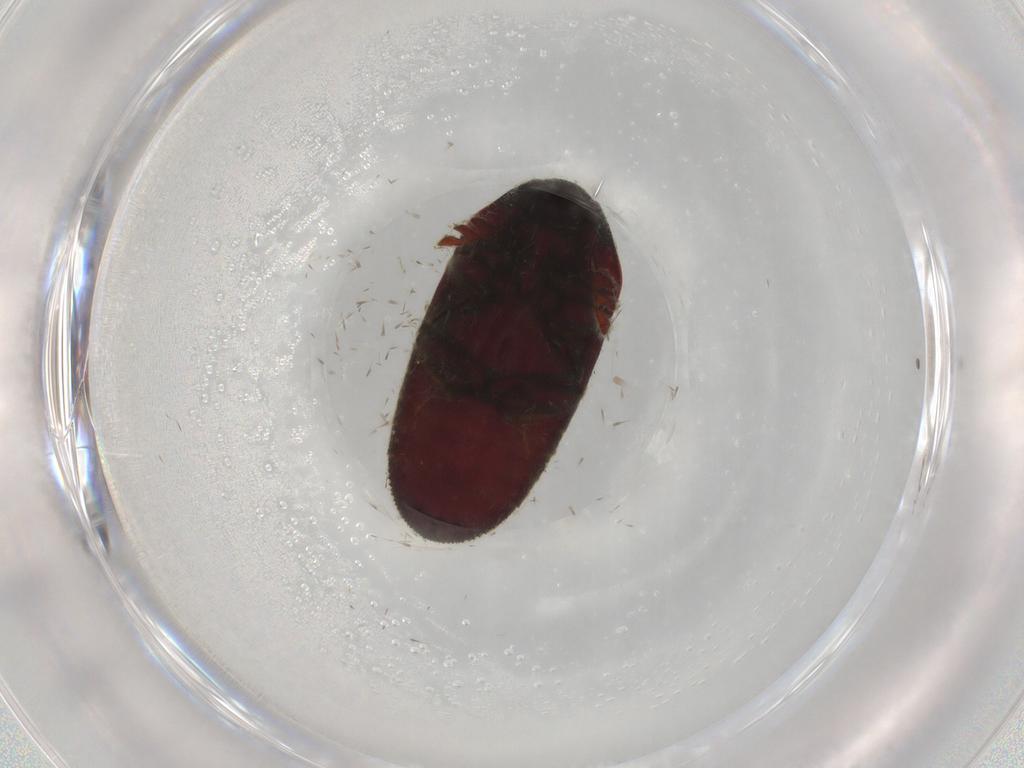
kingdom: Animalia
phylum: Arthropoda
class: Insecta
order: Coleoptera
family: Throscidae
